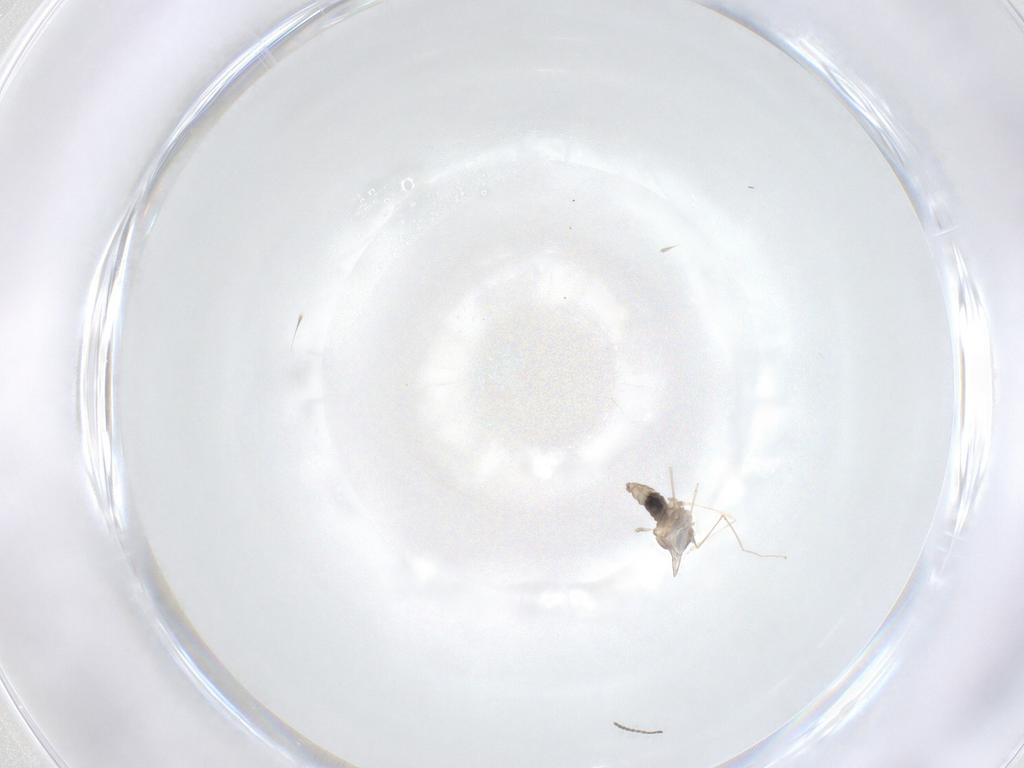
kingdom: Animalia
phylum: Arthropoda
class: Insecta
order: Diptera
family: Cecidomyiidae
